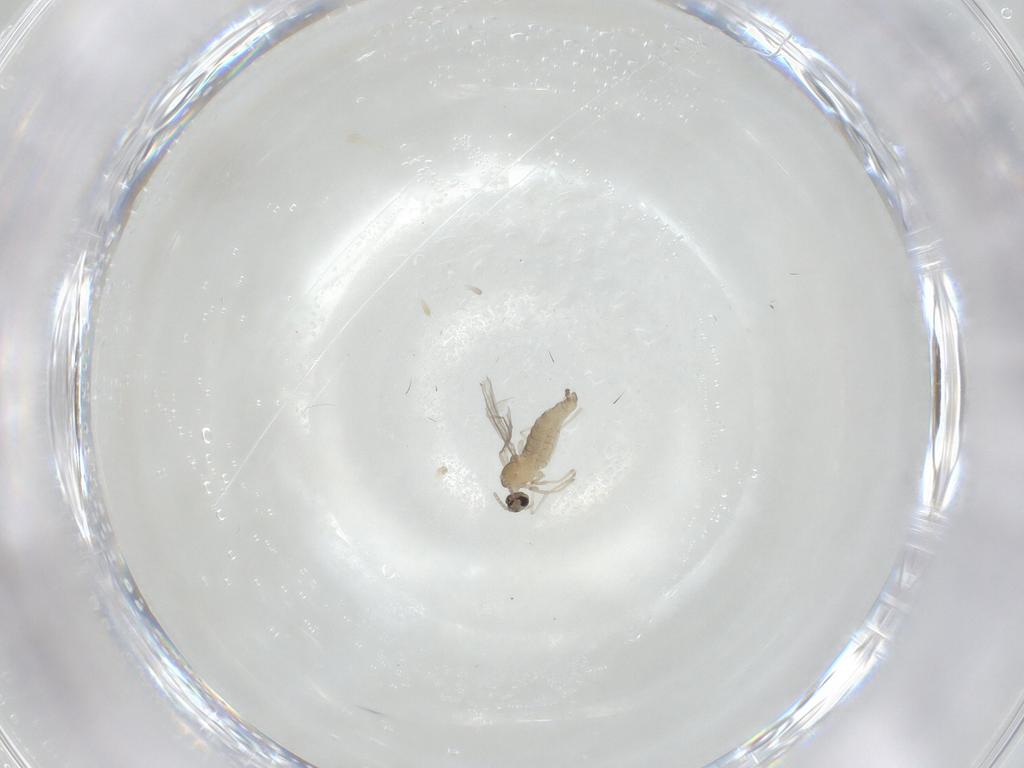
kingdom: Animalia
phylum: Arthropoda
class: Insecta
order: Diptera
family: Cecidomyiidae
